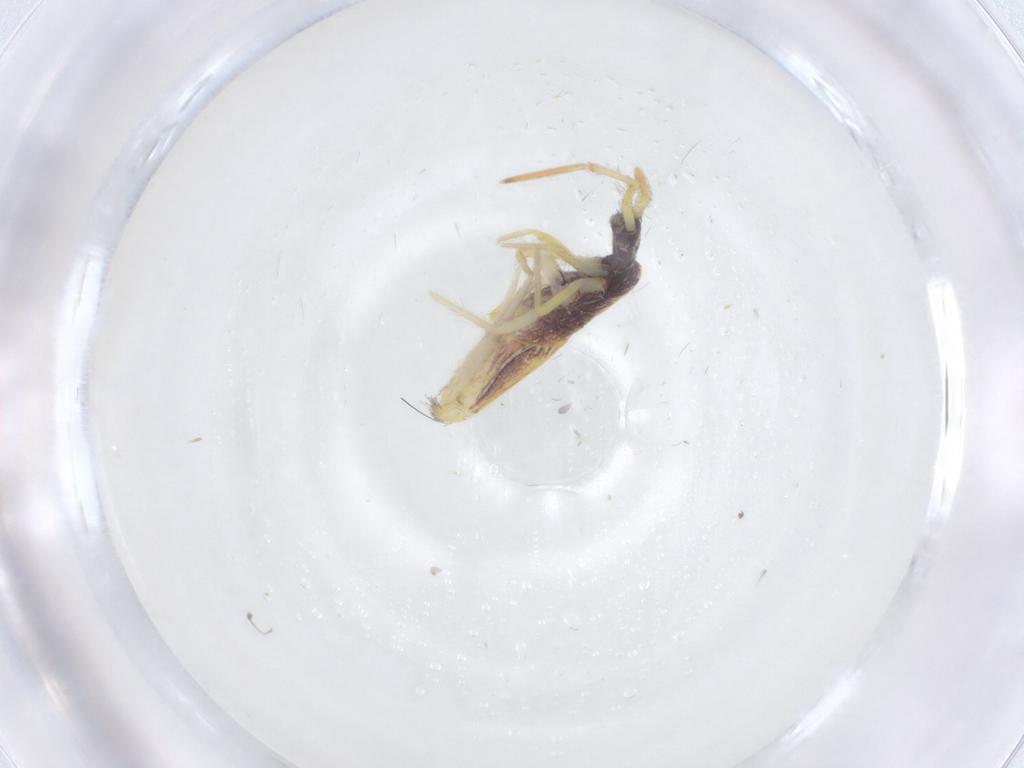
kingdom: Animalia
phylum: Arthropoda
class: Collembola
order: Entomobryomorpha
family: Entomobryidae
